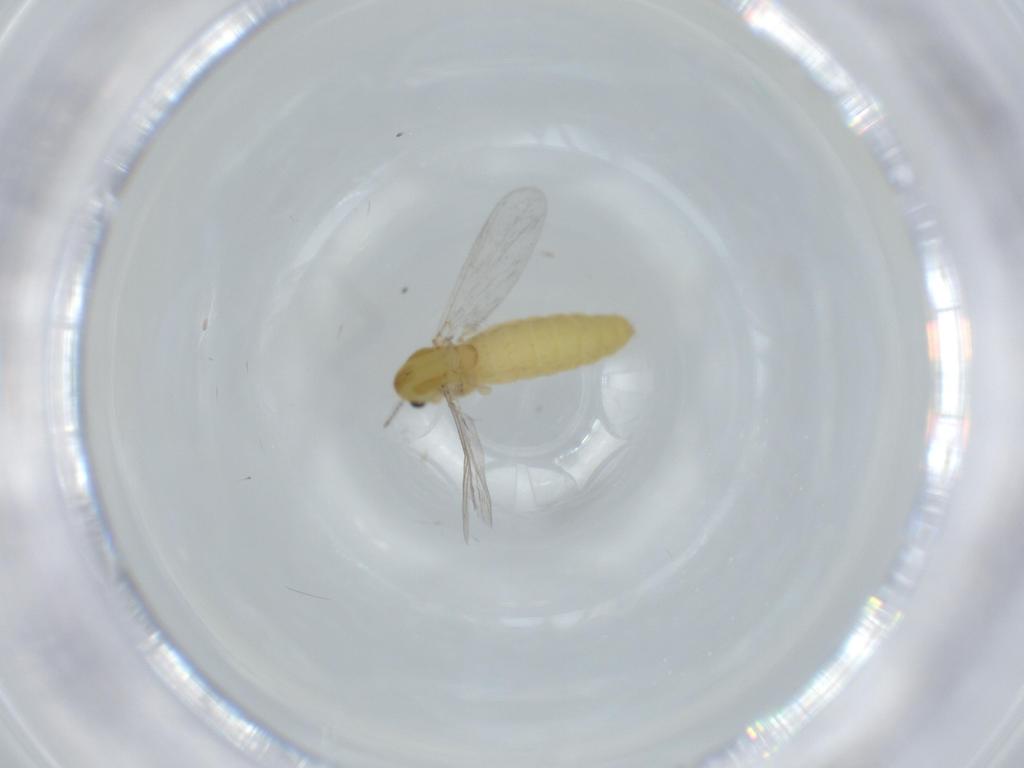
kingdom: Animalia
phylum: Arthropoda
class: Insecta
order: Diptera
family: Chironomidae
